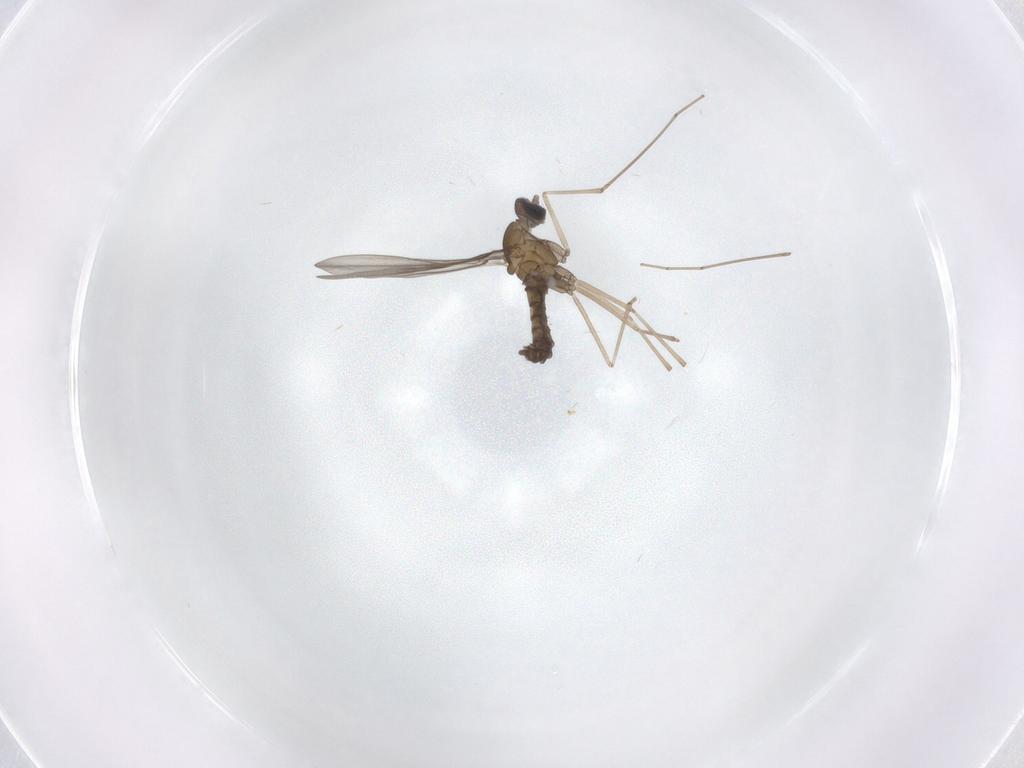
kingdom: Animalia
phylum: Arthropoda
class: Insecta
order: Diptera
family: Cecidomyiidae
